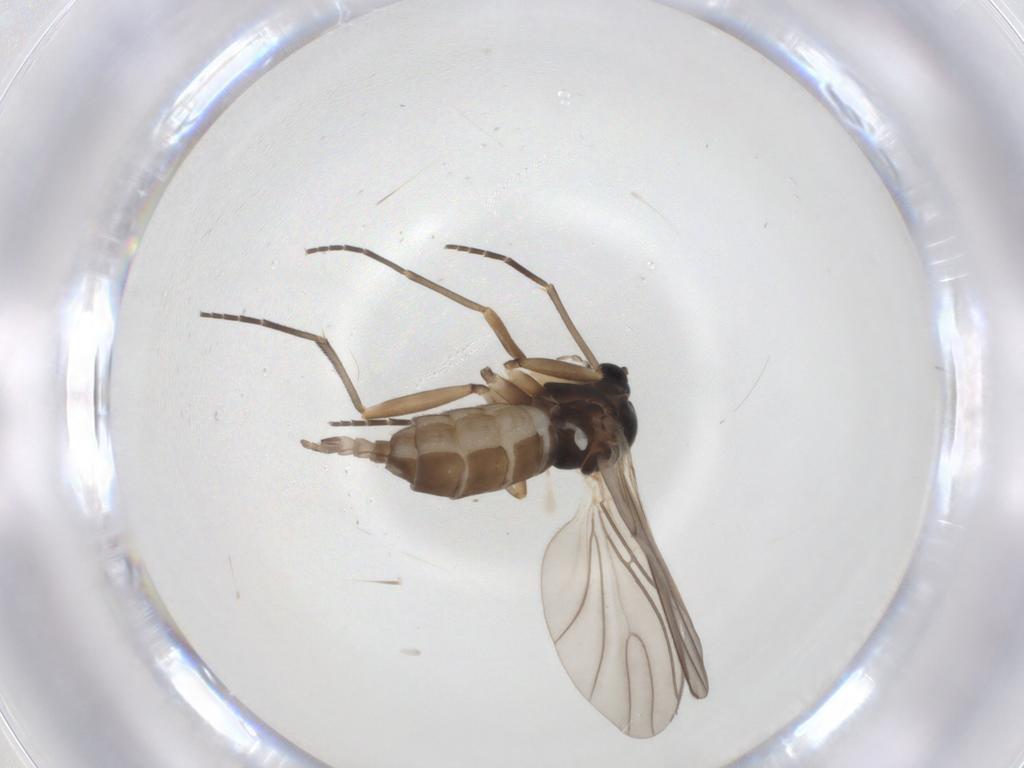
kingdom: Animalia
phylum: Arthropoda
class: Insecta
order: Diptera
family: Sciaridae
